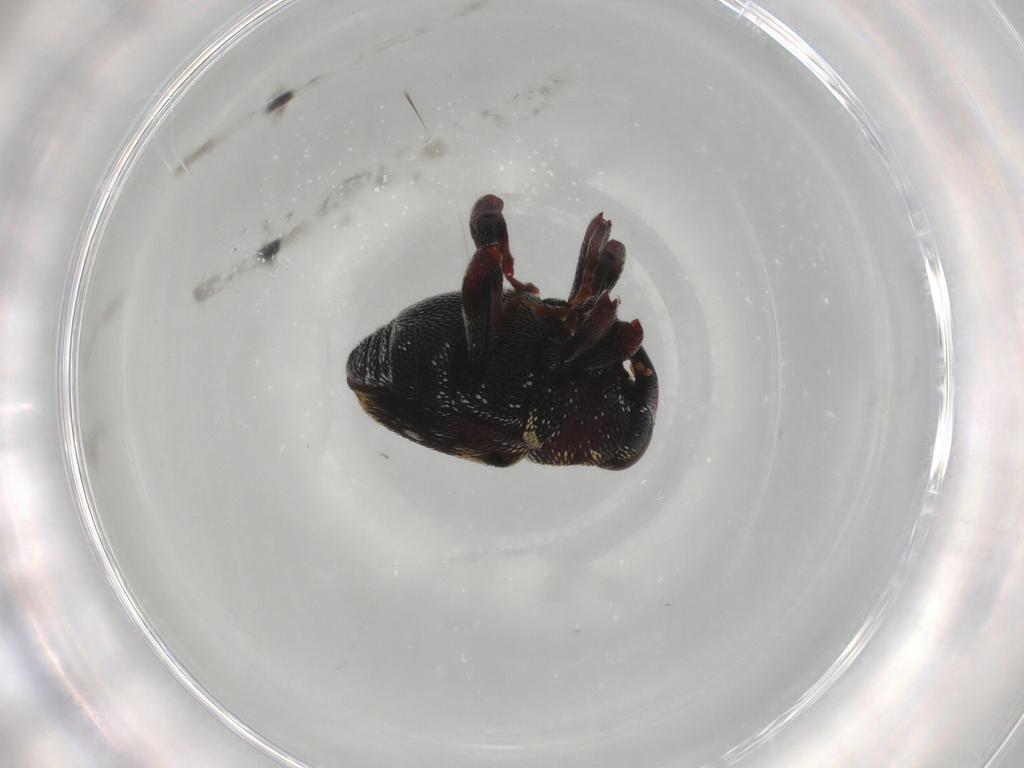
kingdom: Animalia
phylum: Arthropoda
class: Insecta
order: Coleoptera
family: Curculionidae
